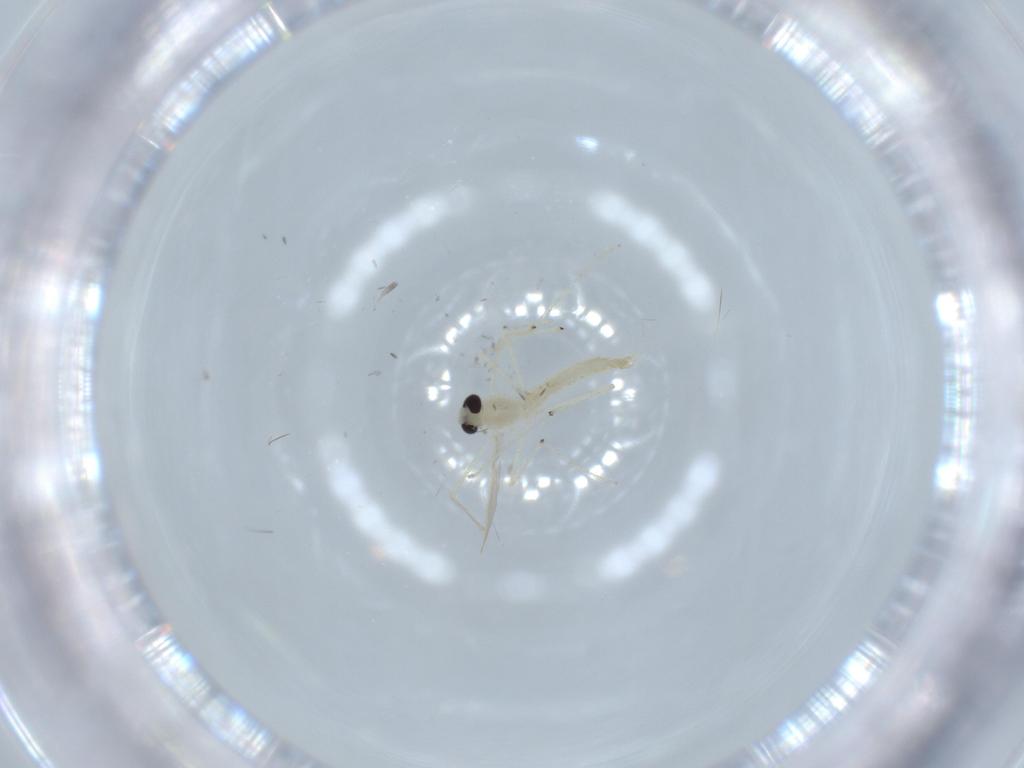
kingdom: Animalia
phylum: Arthropoda
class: Insecta
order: Diptera
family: Chironomidae
